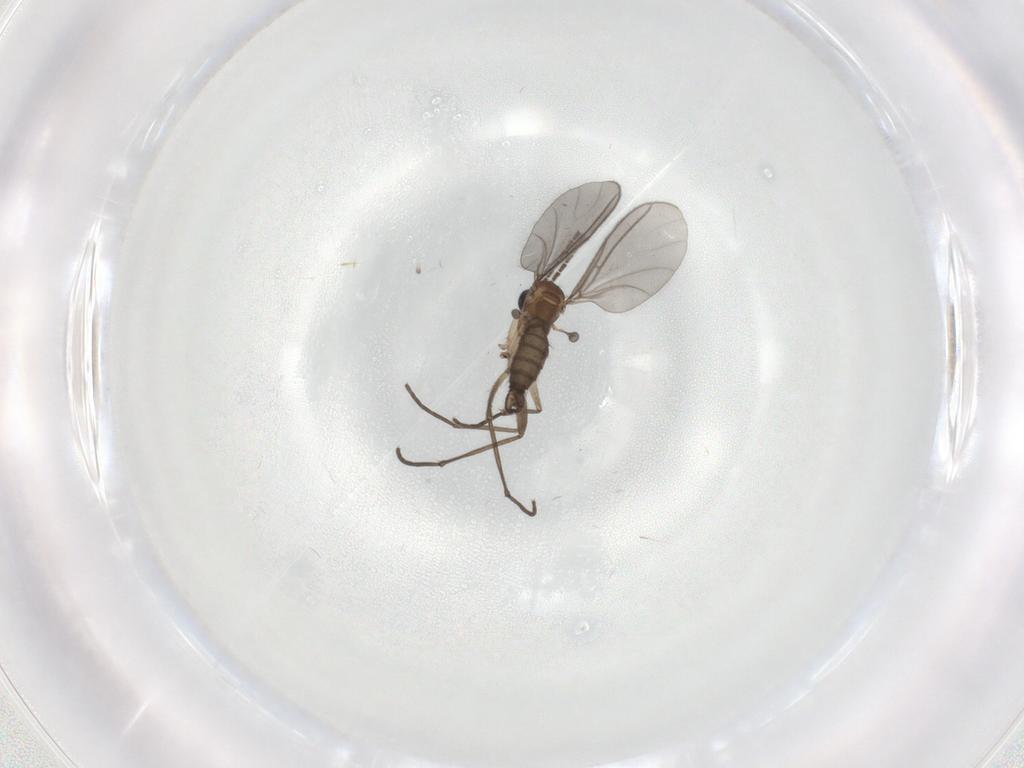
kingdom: Animalia
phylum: Arthropoda
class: Insecta
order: Diptera
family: Sciaridae
